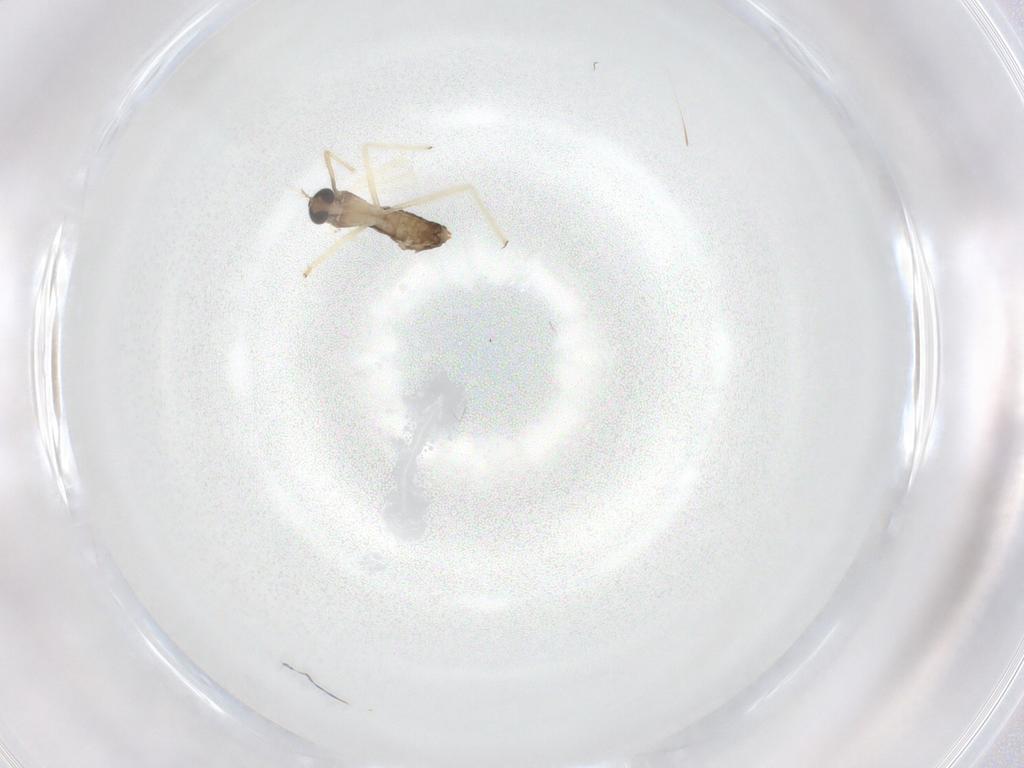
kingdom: Animalia
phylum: Arthropoda
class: Insecta
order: Diptera
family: Chironomidae
